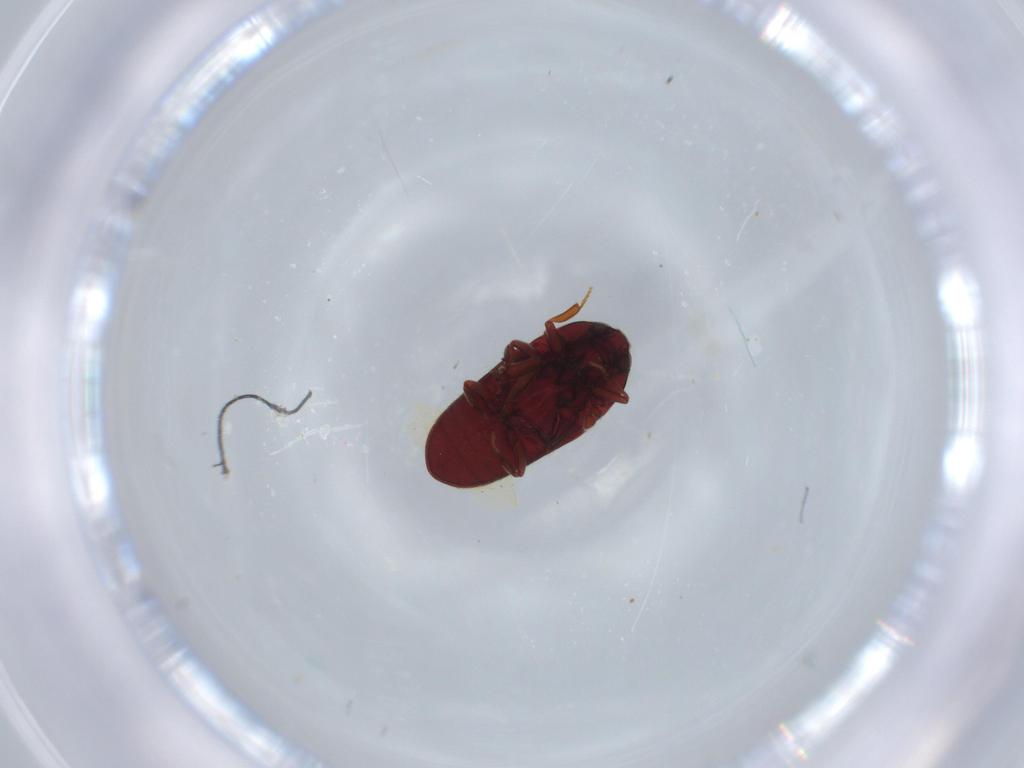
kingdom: Animalia
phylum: Arthropoda
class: Insecta
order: Coleoptera
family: Throscidae
